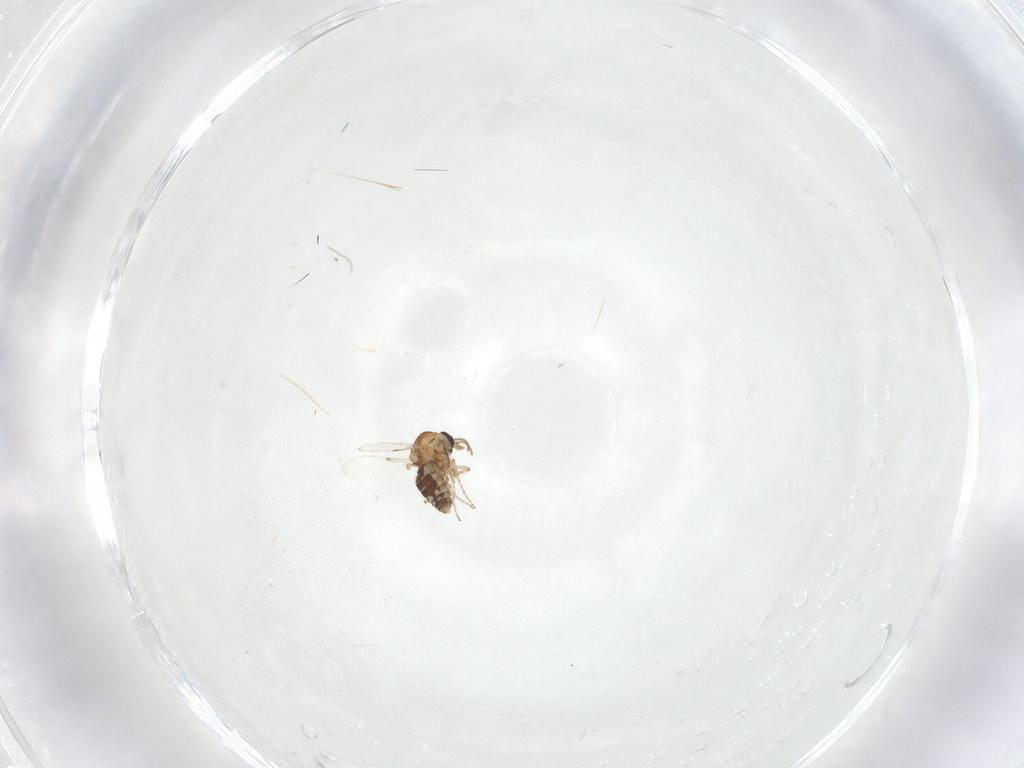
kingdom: Animalia
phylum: Arthropoda
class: Insecta
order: Diptera
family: Ceratopogonidae
